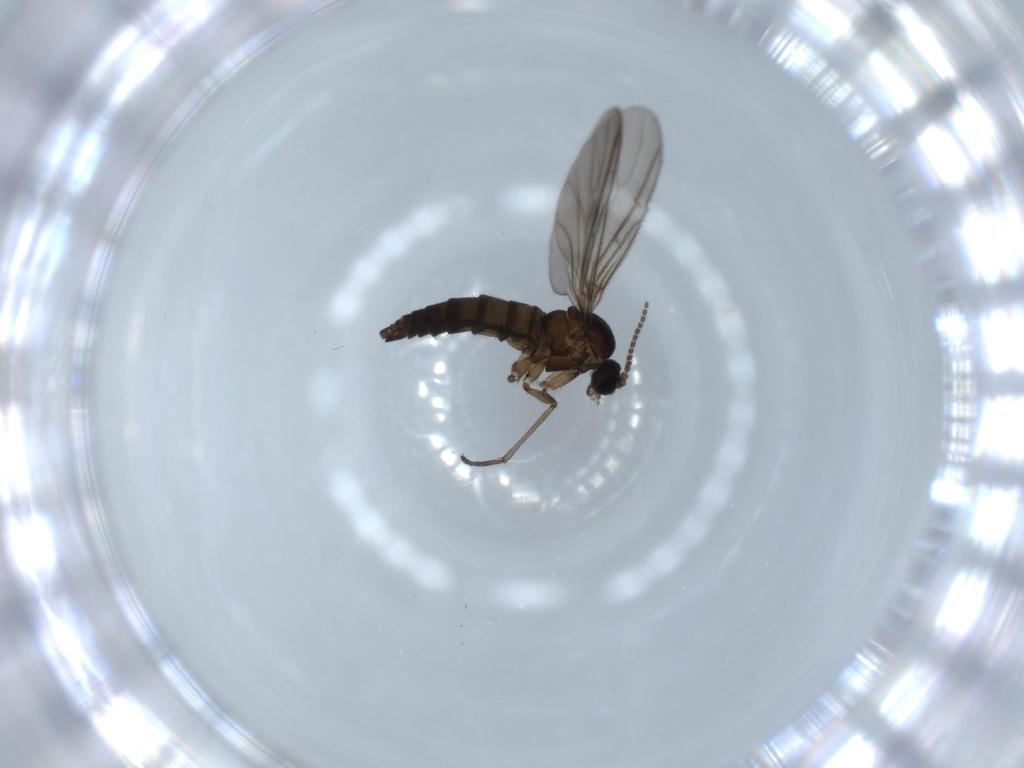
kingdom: Animalia
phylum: Arthropoda
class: Insecta
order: Diptera
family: Sciaridae
